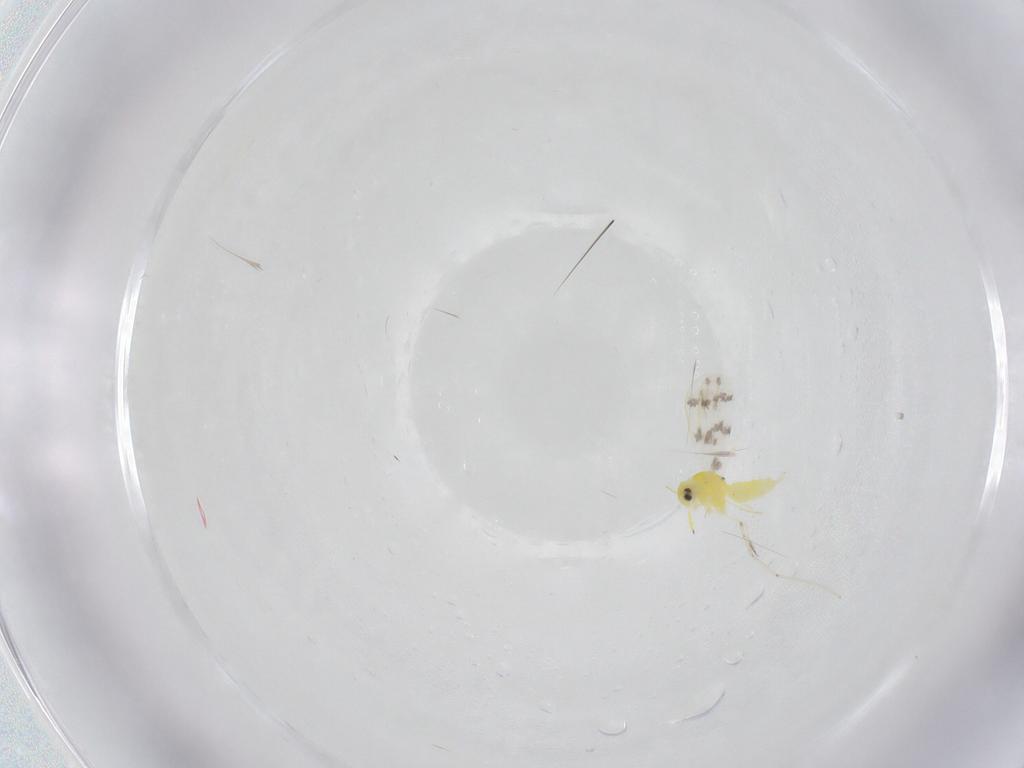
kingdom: Animalia
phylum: Arthropoda
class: Insecta
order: Hemiptera
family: Aleyrodidae
